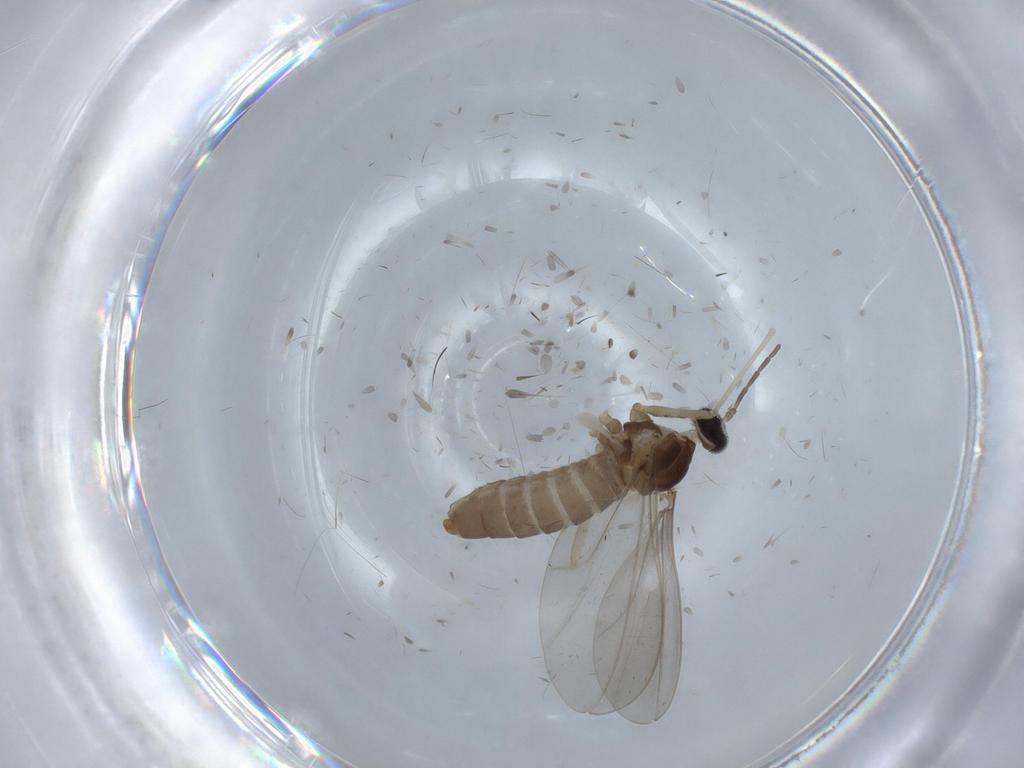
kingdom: Animalia
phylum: Arthropoda
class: Insecta
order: Diptera
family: Cecidomyiidae
